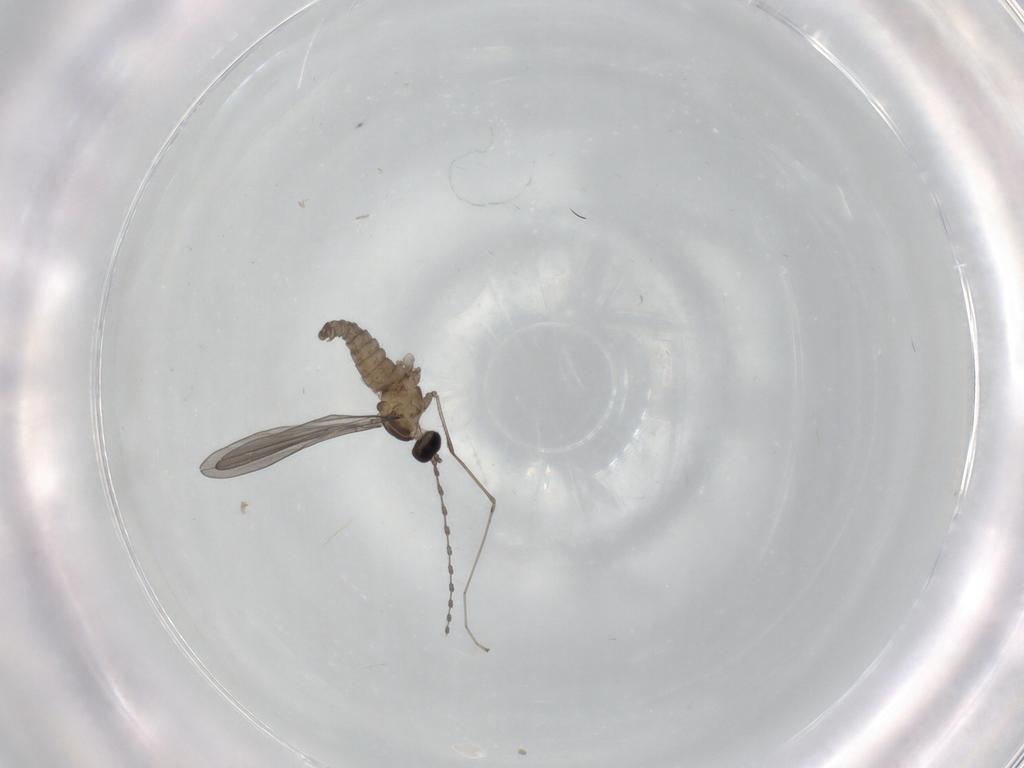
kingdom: Animalia
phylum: Arthropoda
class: Insecta
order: Diptera
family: Cecidomyiidae
